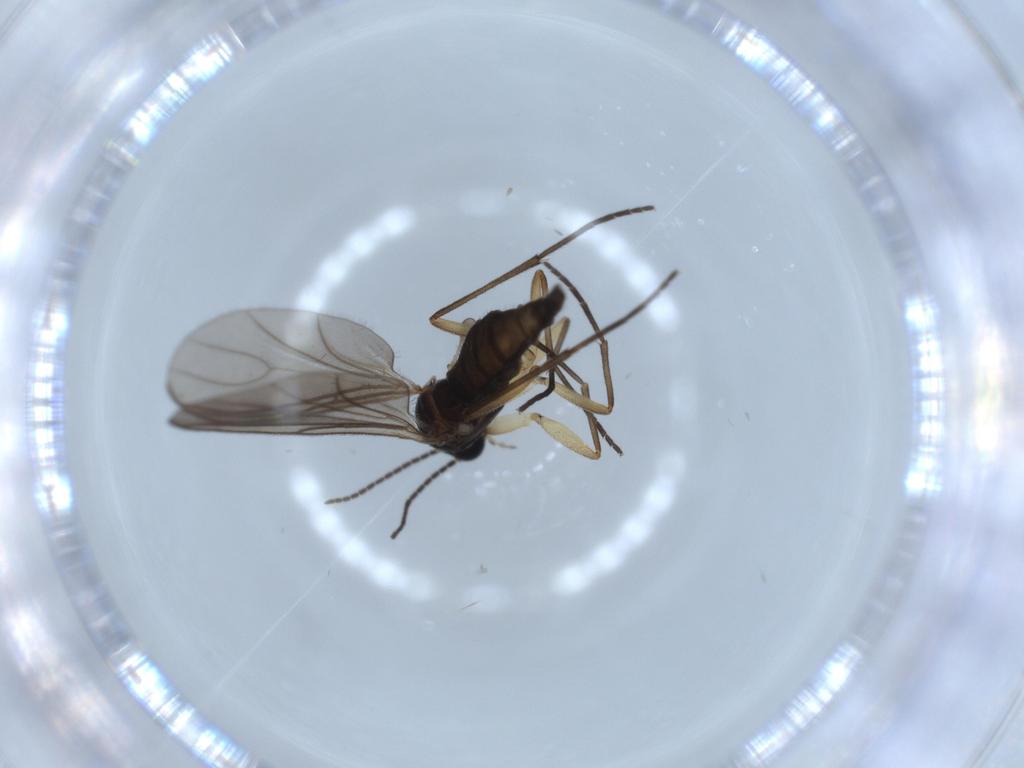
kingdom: Animalia
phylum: Arthropoda
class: Insecta
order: Diptera
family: Sciaridae
